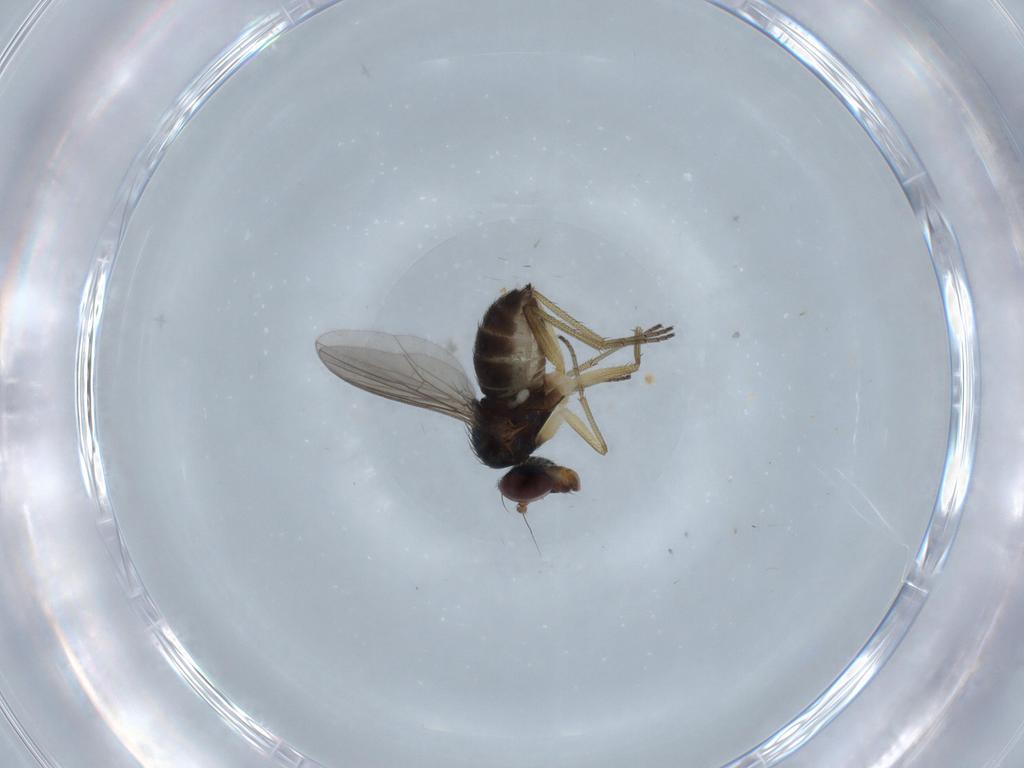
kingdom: Animalia
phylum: Arthropoda
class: Insecta
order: Diptera
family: Dolichopodidae
